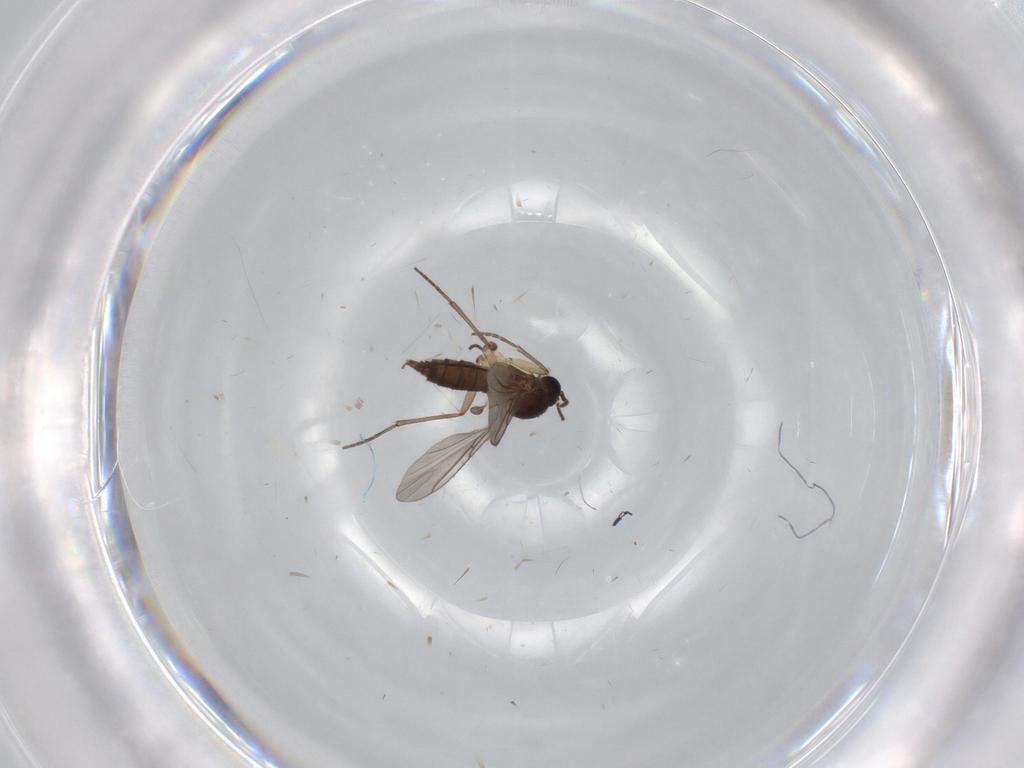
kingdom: Animalia
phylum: Arthropoda
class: Insecta
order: Diptera
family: Sciaridae
